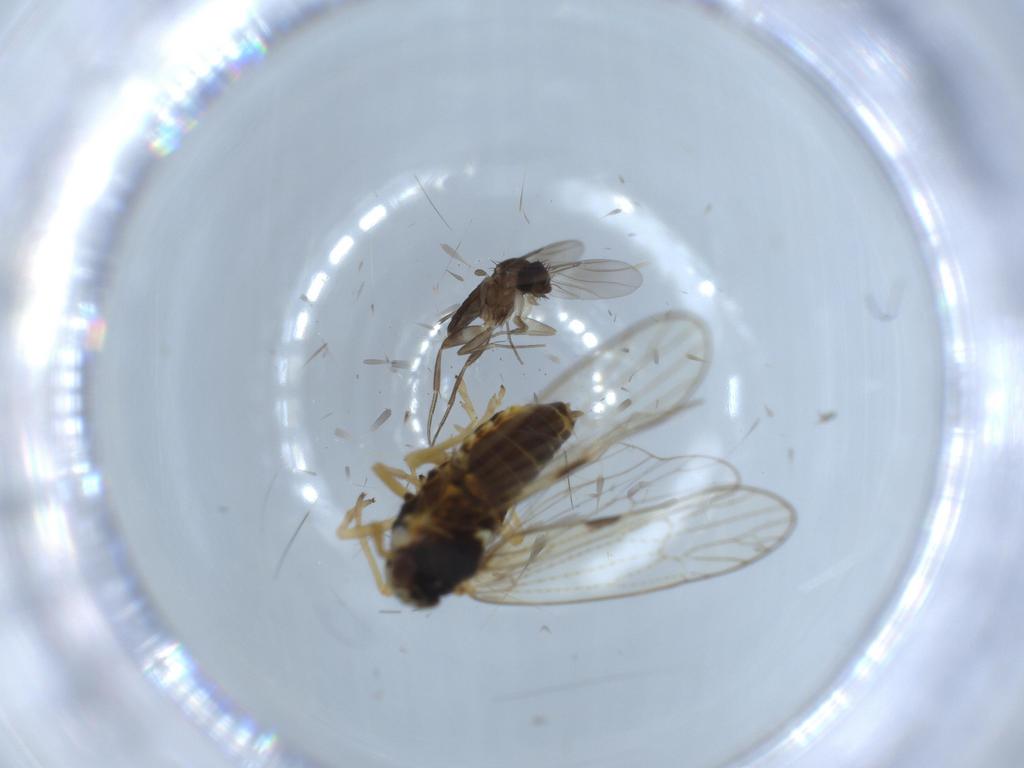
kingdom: Animalia
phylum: Arthropoda
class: Insecta
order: Diptera
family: Phoridae
